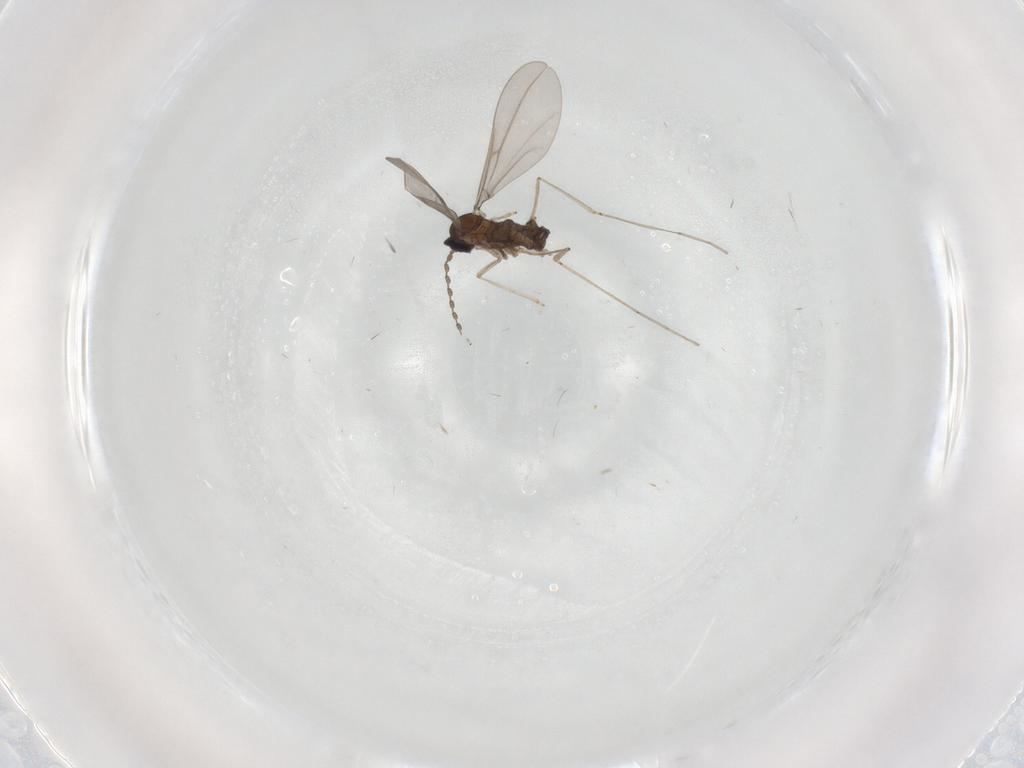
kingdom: Animalia
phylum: Arthropoda
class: Insecta
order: Diptera
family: Cecidomyiidae
